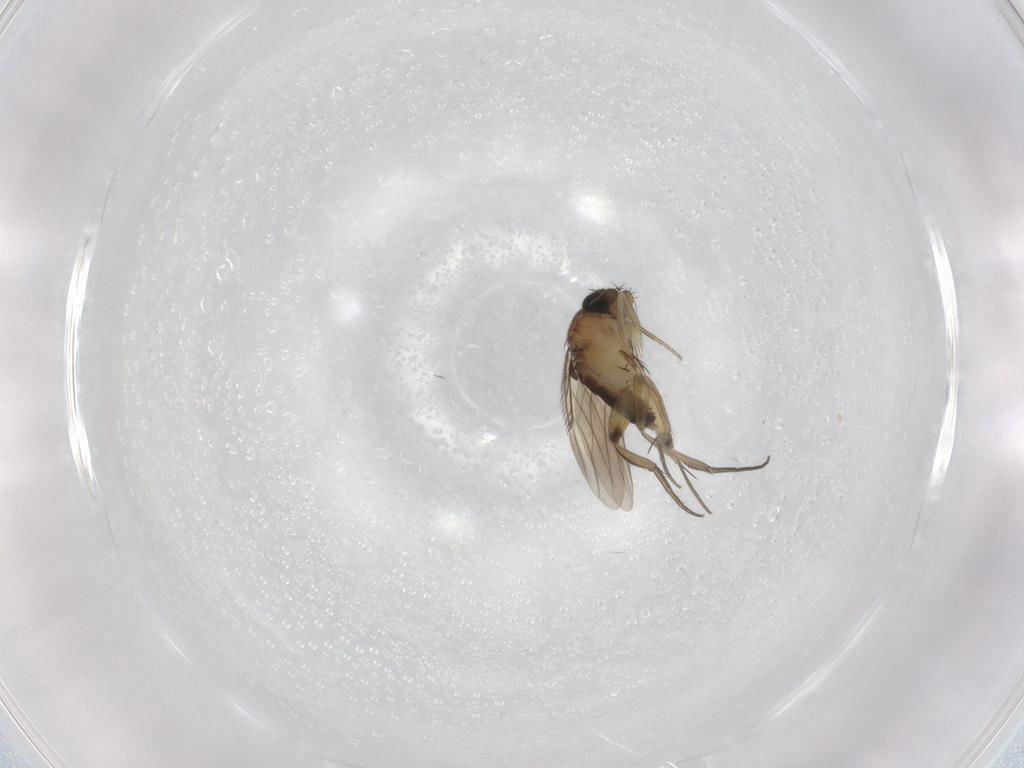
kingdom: Animalia
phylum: Arthropoda
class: Insecta
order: Diptera
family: Phoridae
